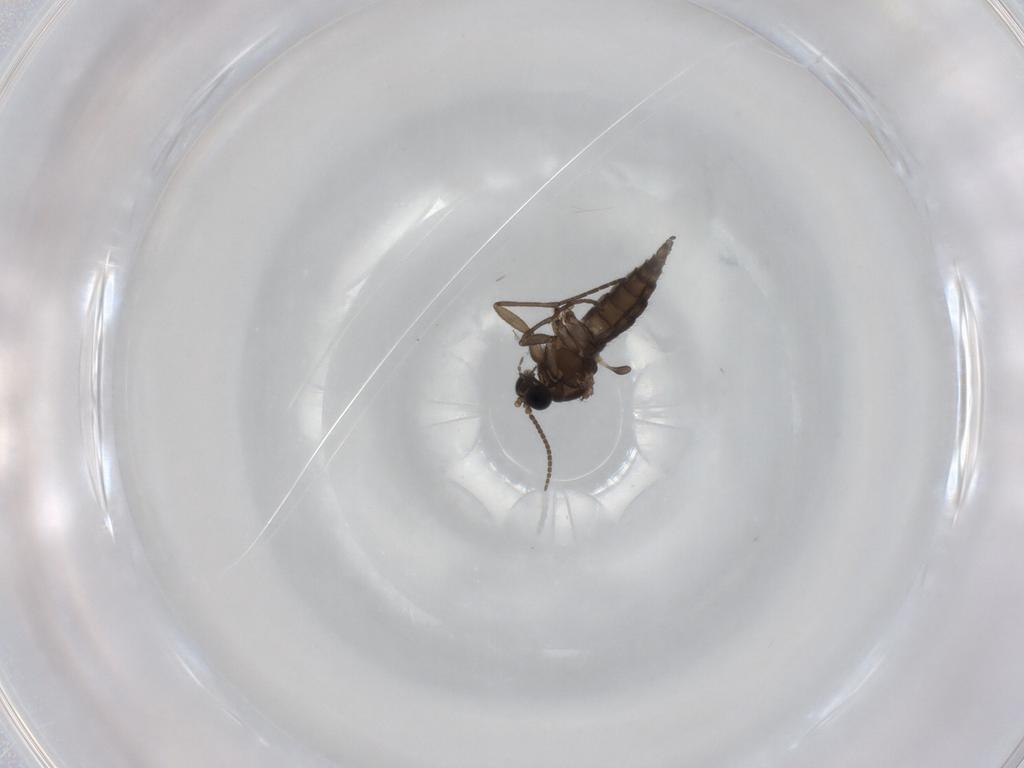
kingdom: Animalia
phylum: Arthropoda
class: Insecta
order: Diptera
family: Sciaridae
